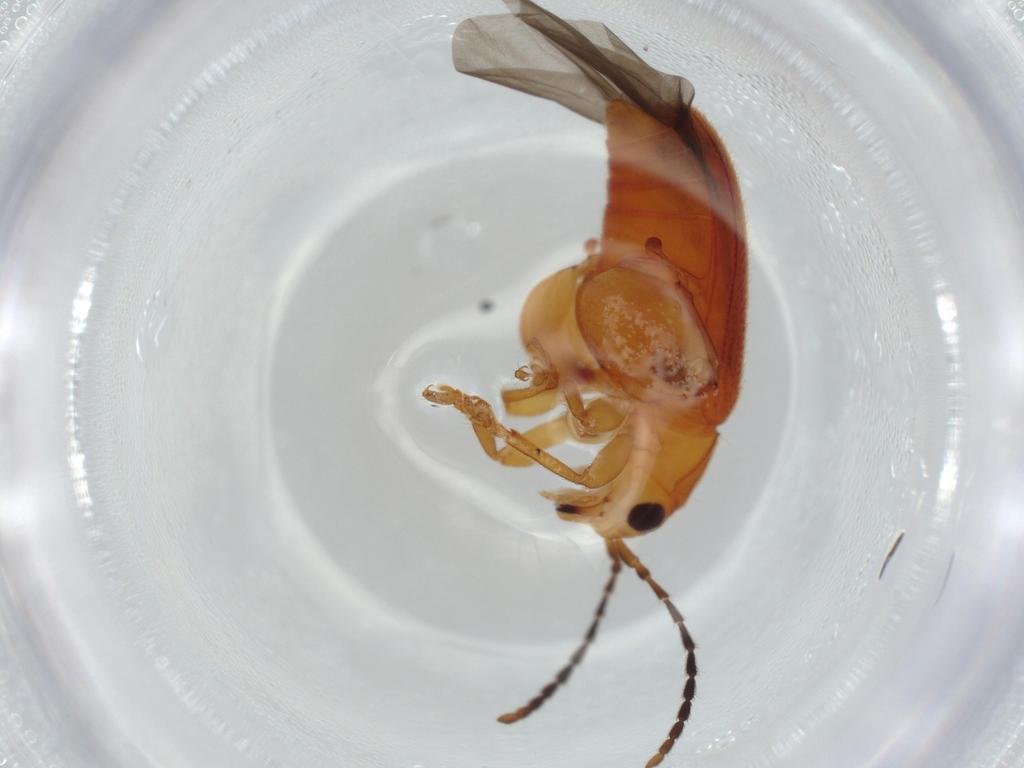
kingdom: Animalia
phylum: Arthropoda
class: Insecta
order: Coleoptera
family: Chrysomelidae
